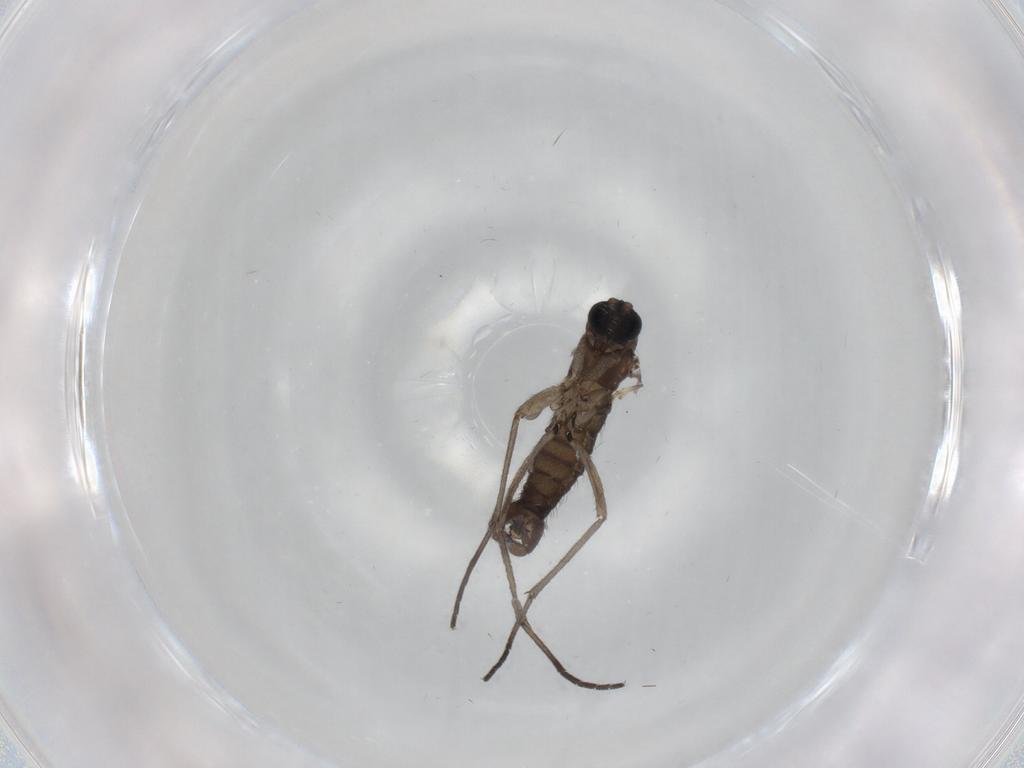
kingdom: Animalia
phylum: Arthropoda
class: Insecta
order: Diptera
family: Sciaridae
